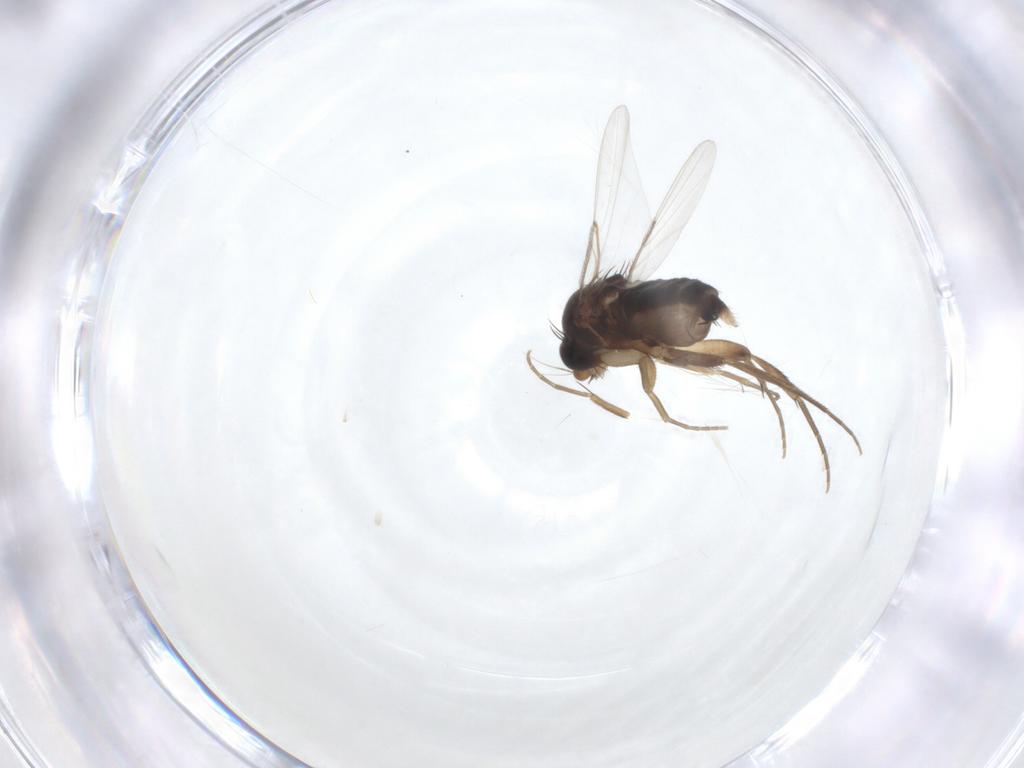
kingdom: Animalia
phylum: Arthropoda
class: Insecta
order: Diptera
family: Phoridae
